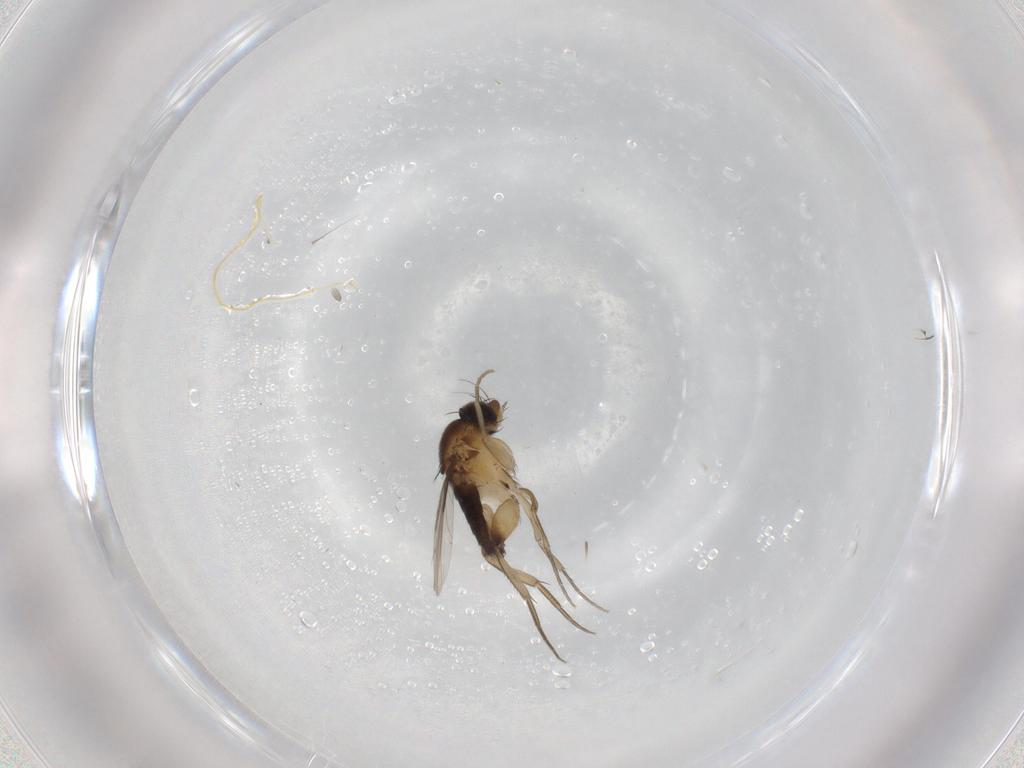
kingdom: Animalia
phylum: Arthropoda
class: Insecta
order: Diptera
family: Phoridae
